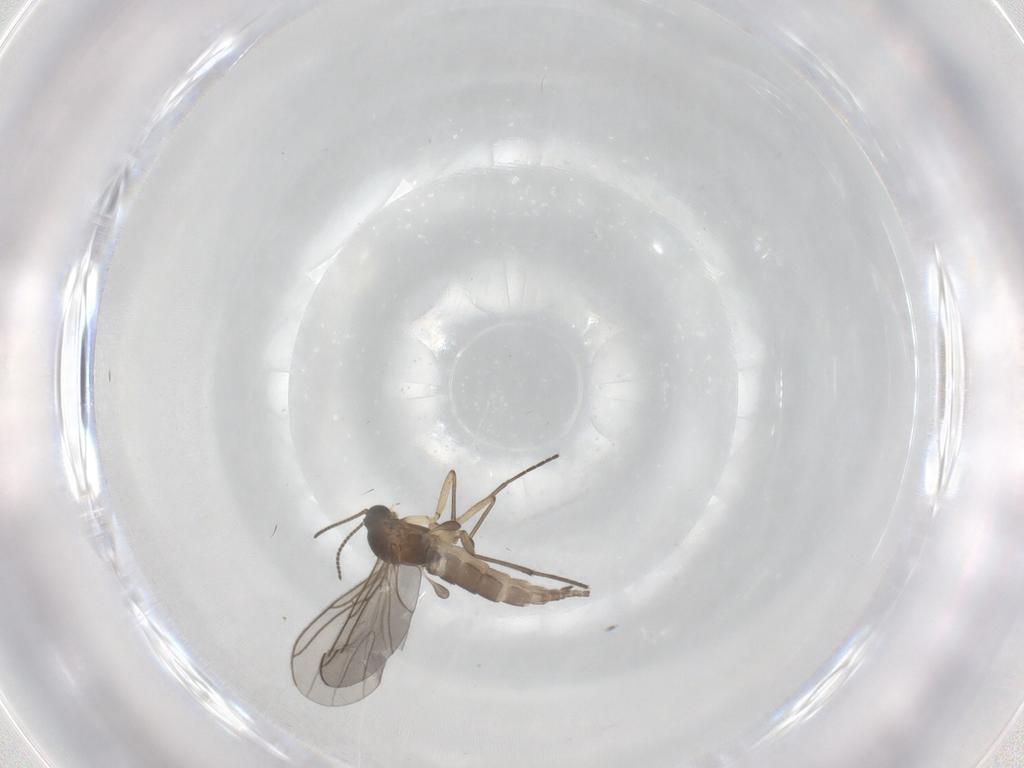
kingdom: Animalia
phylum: Arthropoda
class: Insecta
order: Diptera
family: Sciaridae
